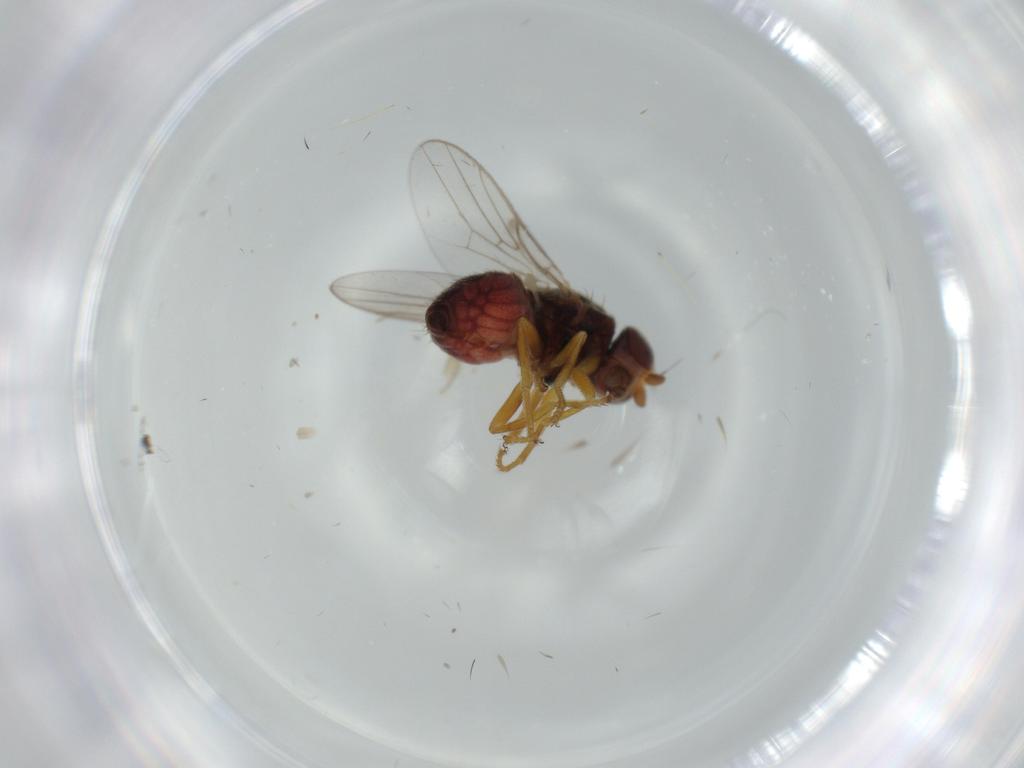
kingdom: Animalia
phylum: Arthropoda
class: Insecta
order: Diptera
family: Chloropidae
